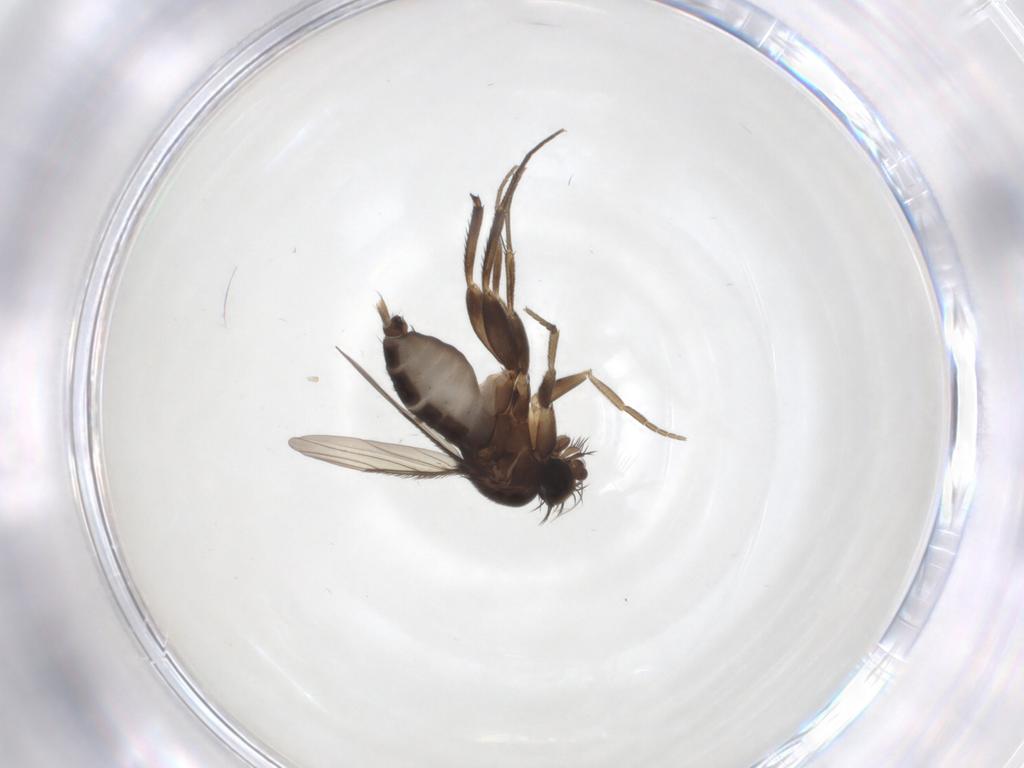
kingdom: Animalia
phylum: Arthropoda
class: Insecta
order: Diptera
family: Phoridae
